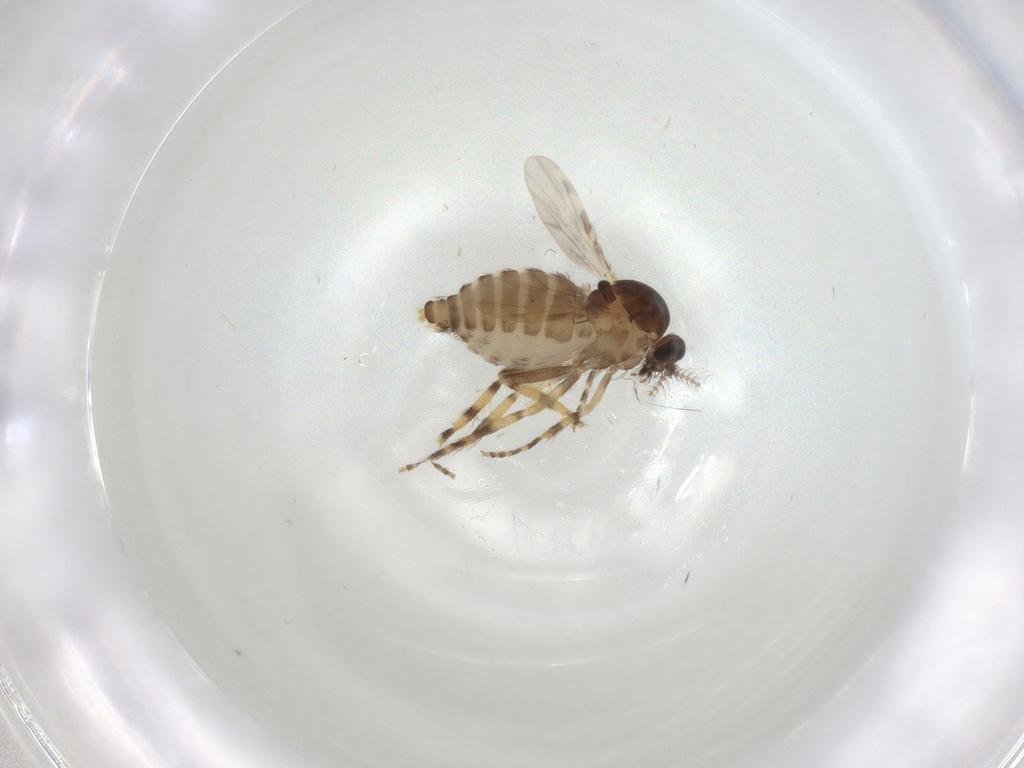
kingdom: Animalia
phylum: Arthropoda
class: Insecta
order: Diptera
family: Ceratopogonidae
